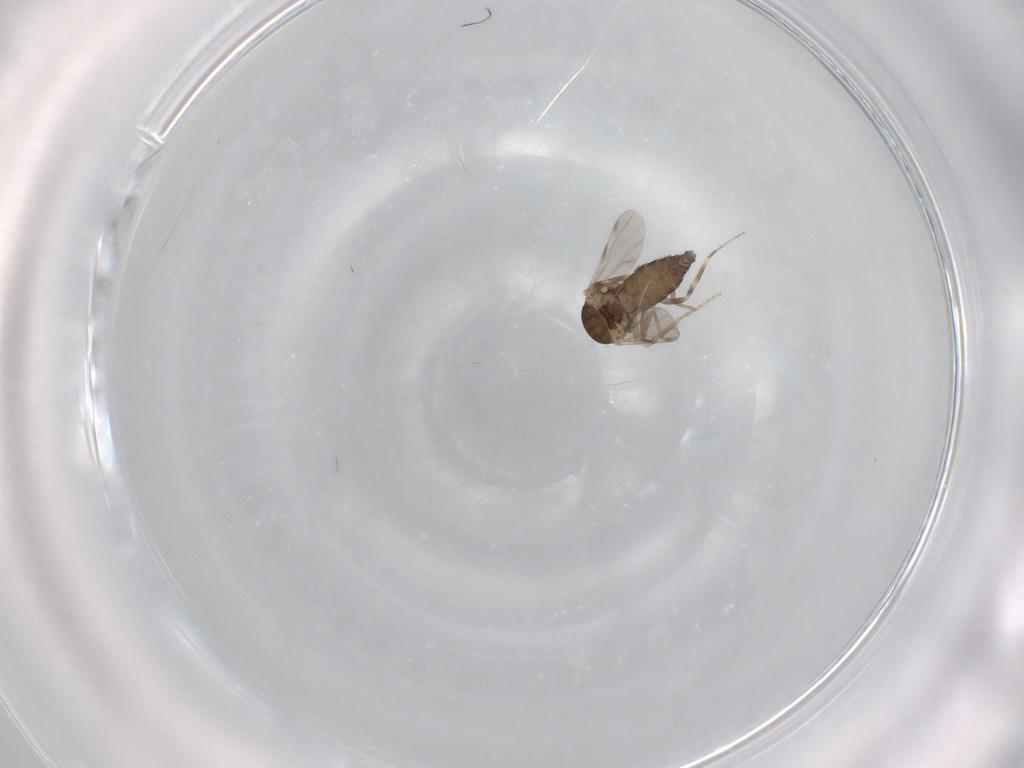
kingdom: Animalia
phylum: Arthropoda
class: Insecta
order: Diptera
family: Ceratopogonidae
